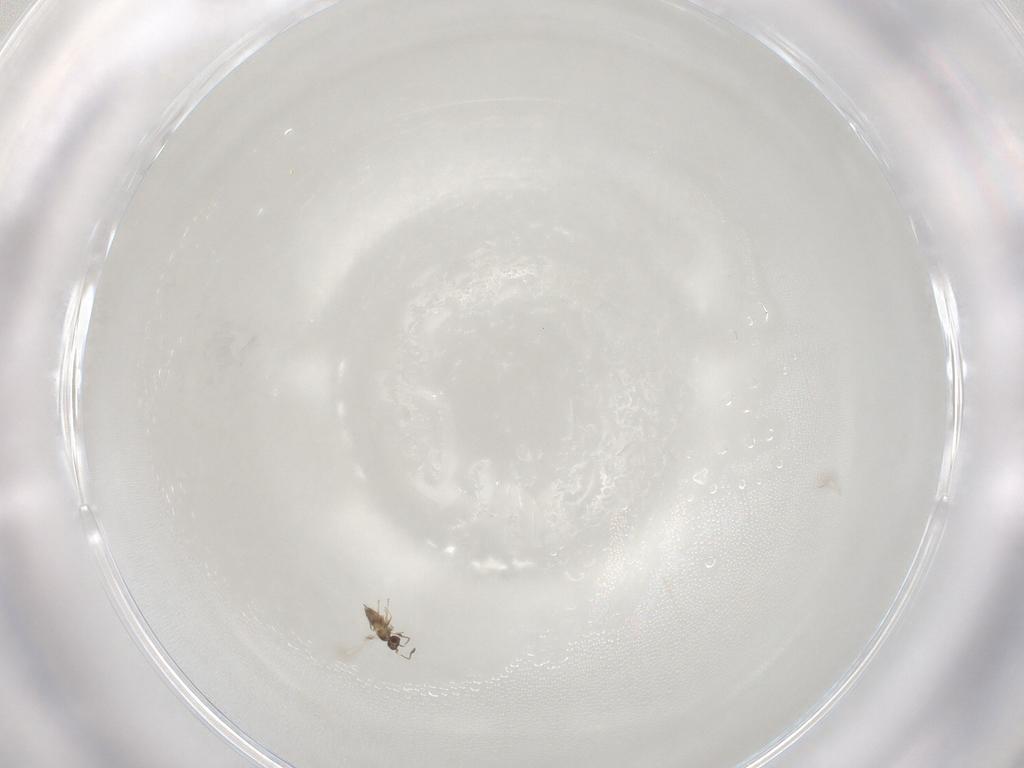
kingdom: Animalia
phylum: Arthropoda
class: Insecta
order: Hymenoptera
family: Mymaridae
